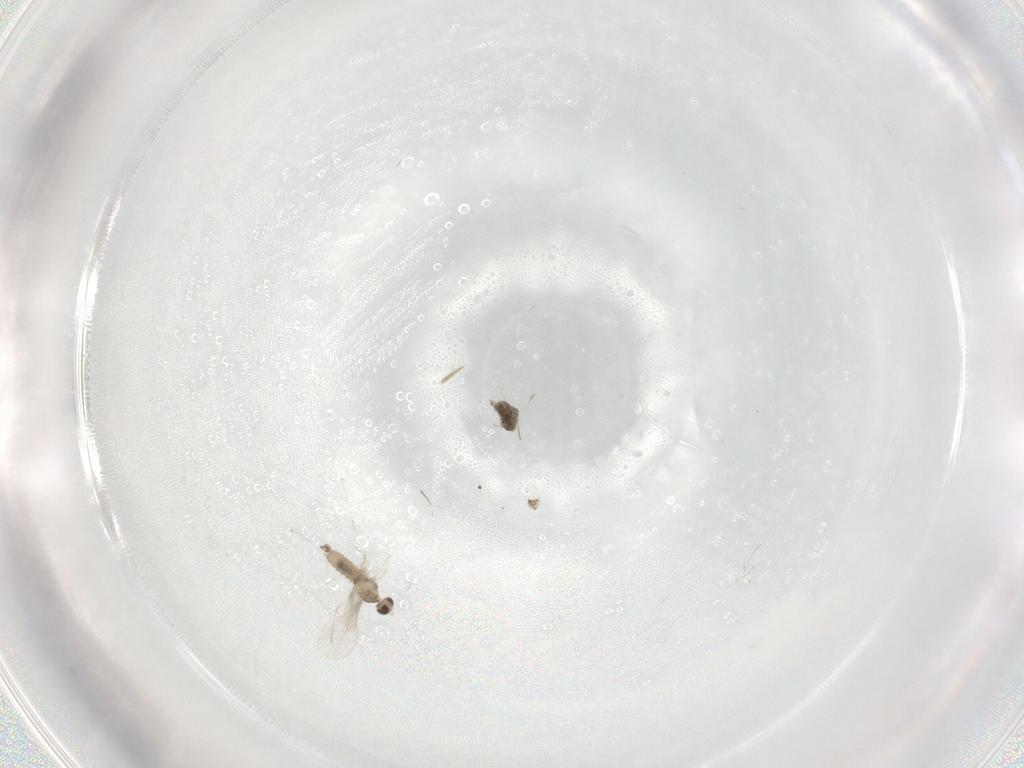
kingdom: Animalia
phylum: Arthropoda
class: Insecta
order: Diptera
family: Cecidomyiidae
